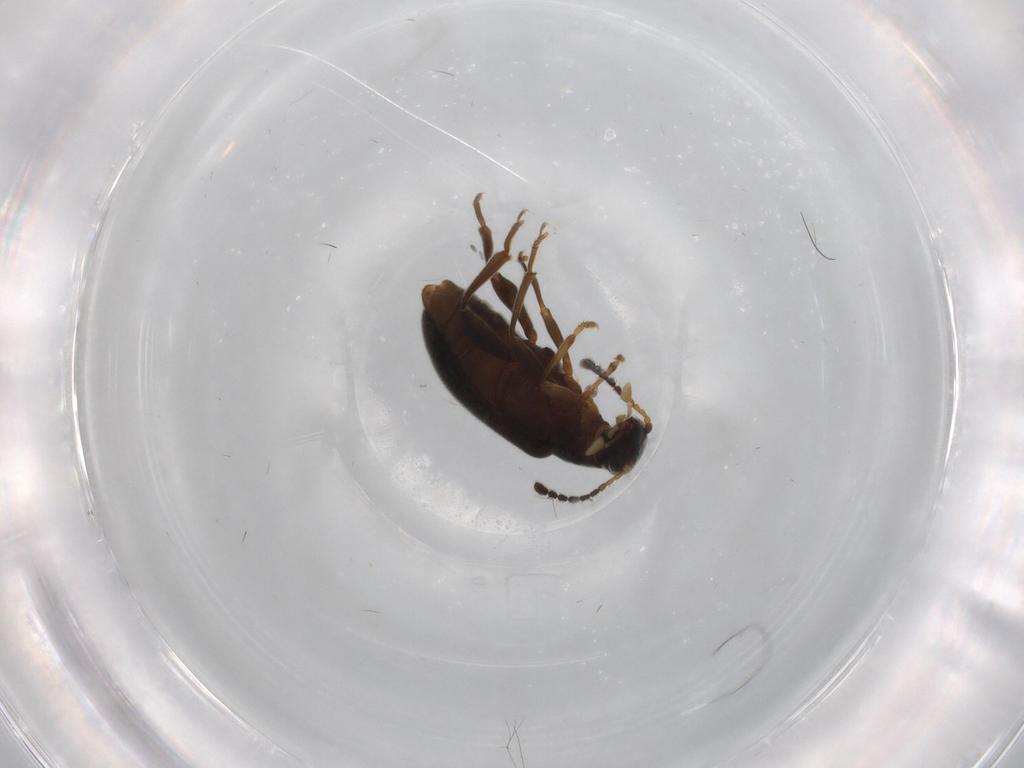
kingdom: Animalia
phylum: Arthropoda
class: Insecta
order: Coleoptera
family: Aderidae
